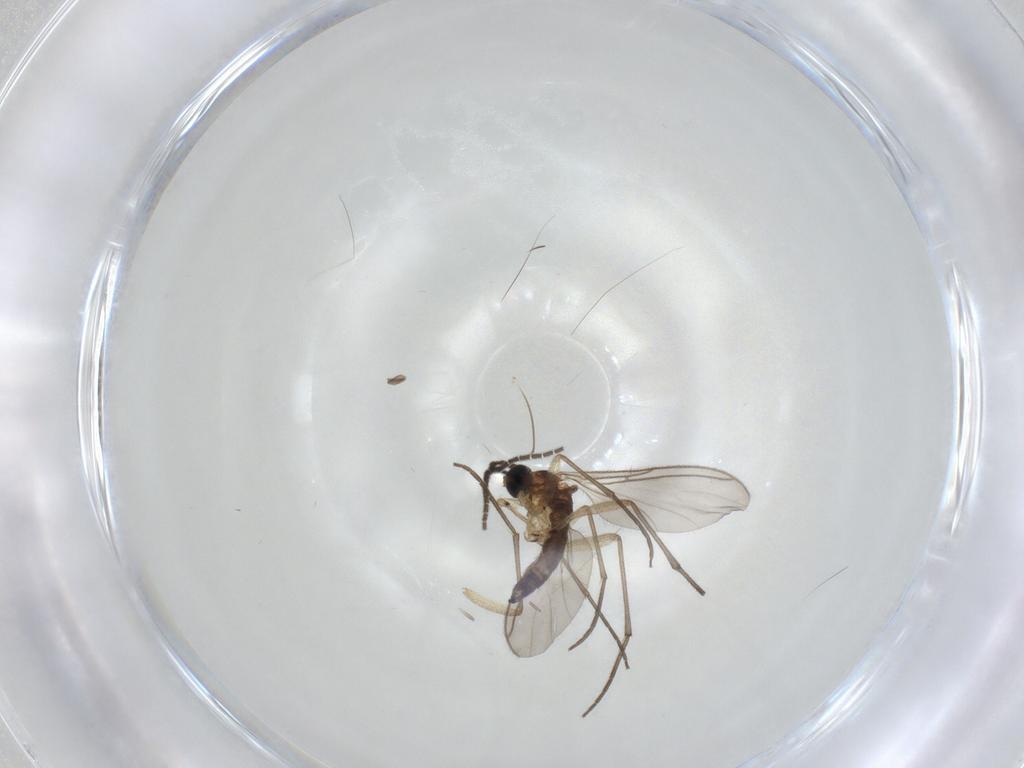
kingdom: Animalia
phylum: Arthropoda
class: Insecta
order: Diptera
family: Sciaridae
